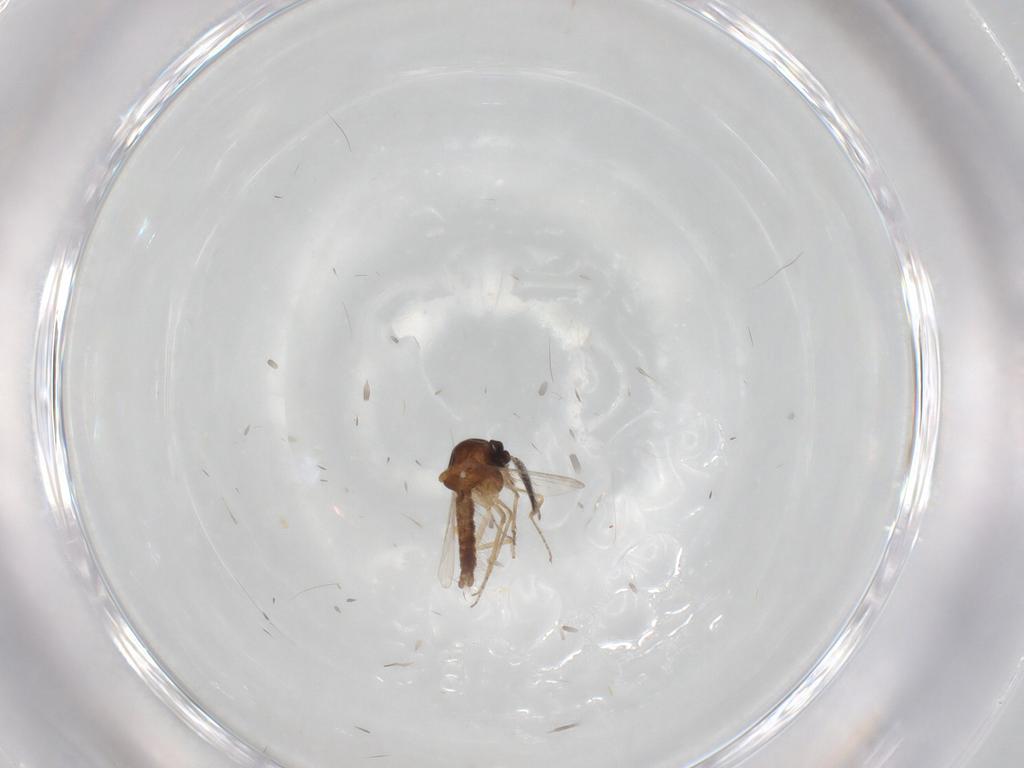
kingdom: Animalia
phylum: Arthropoda
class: Insecta
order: Diptera
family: Ceratopogonidae
